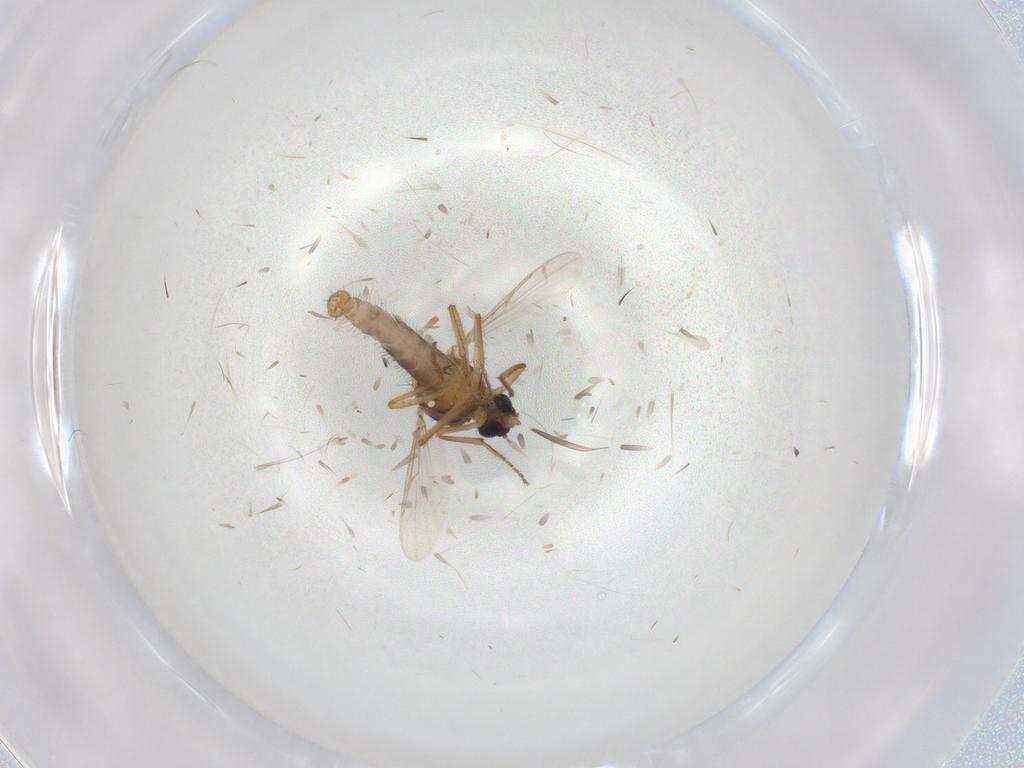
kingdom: Animalia
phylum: Arthropoda
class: Insecta
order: Diptera
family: Ceratopogonidae
